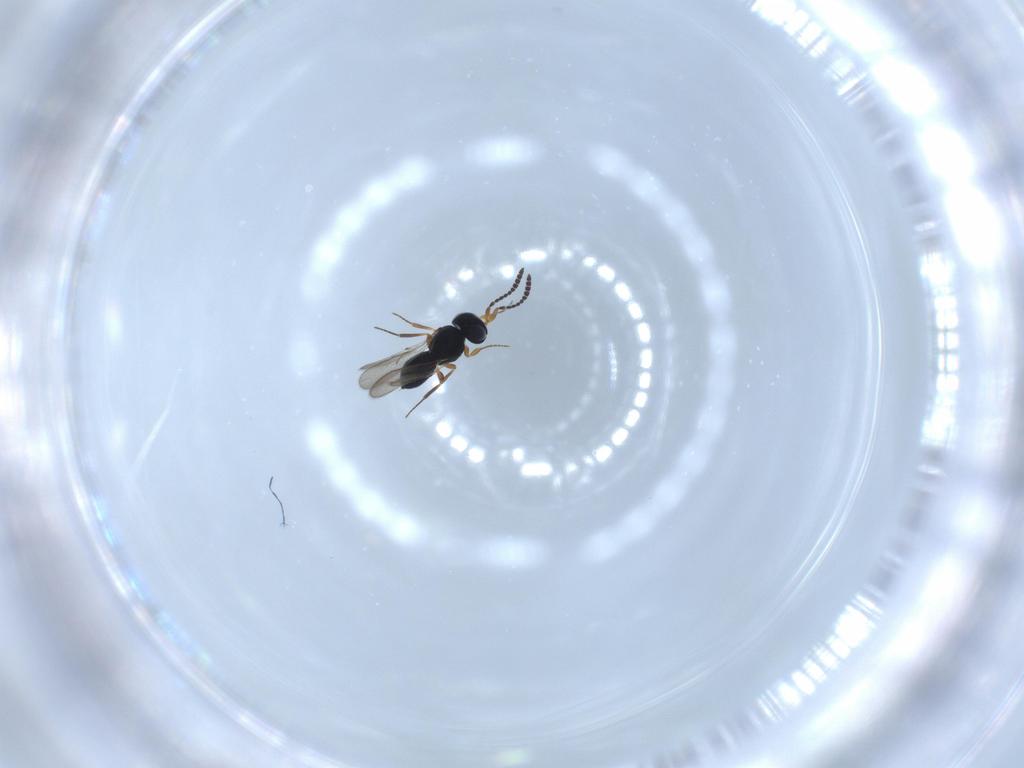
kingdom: Animalia
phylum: Arthropoda
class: Insecta
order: Hymenoptera
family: Scelionidae
